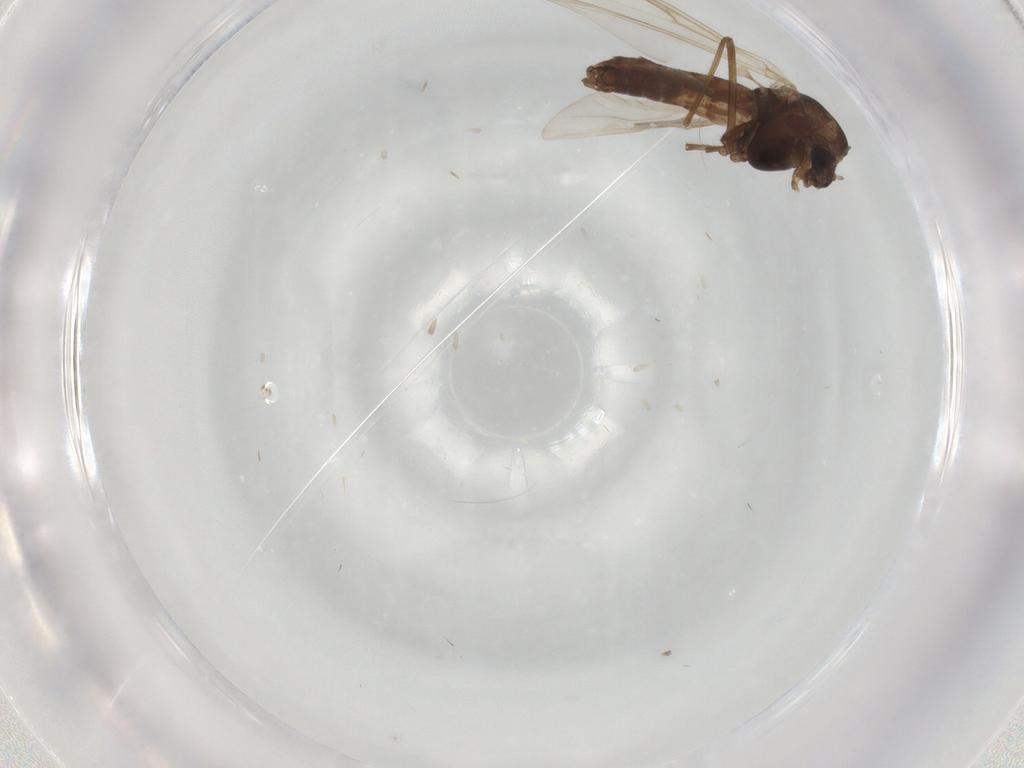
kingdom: Animalia
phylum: Arthropoda
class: Insecta
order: Diptera
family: Chironomidae
